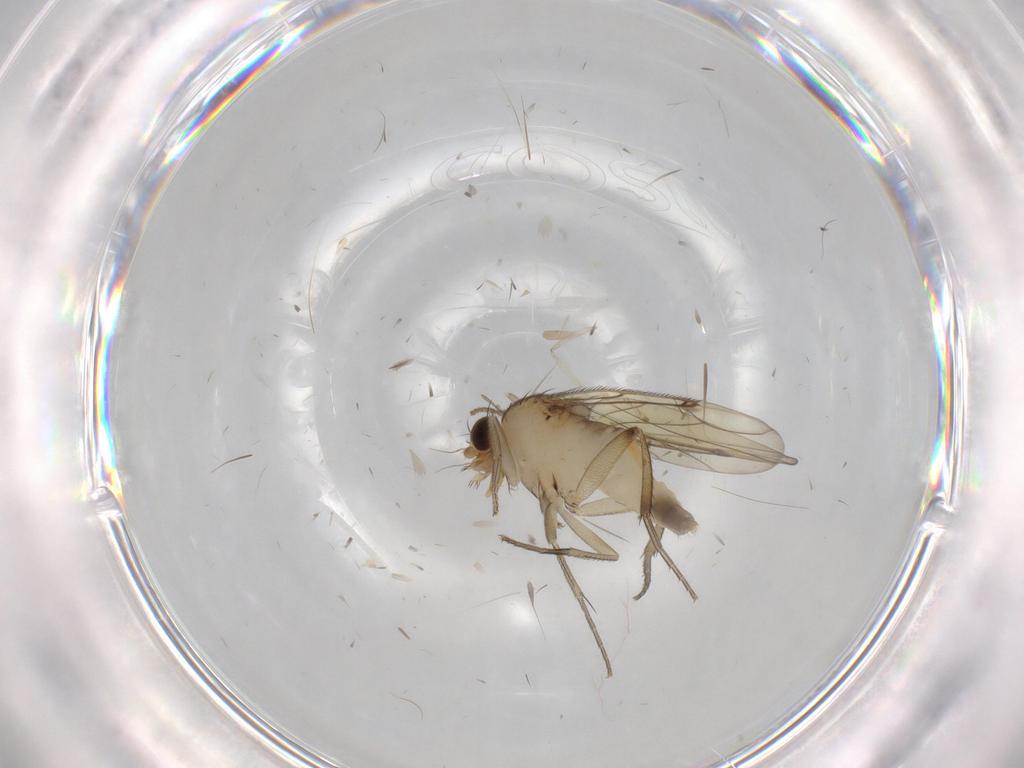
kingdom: Animalia
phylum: Arthropoda
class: Insecta
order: Diptera
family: Phoridae
